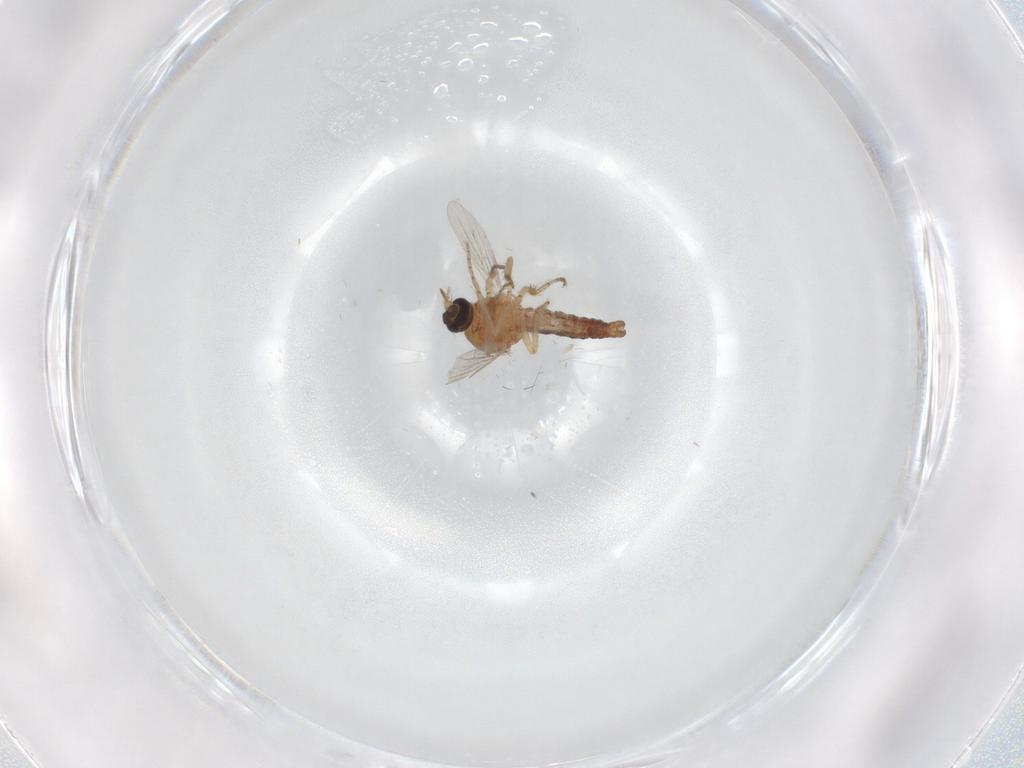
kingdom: Animalia
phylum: Arthropoda
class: Insecta
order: Diptera
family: Ceratopogonidae
